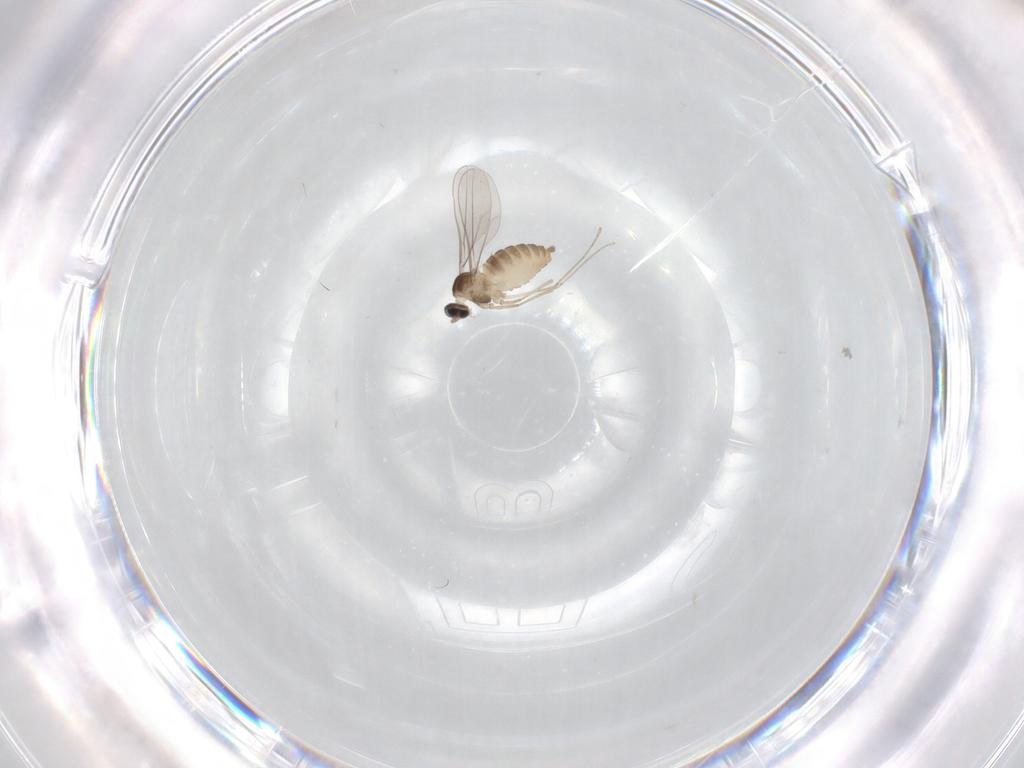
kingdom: Animalia
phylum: Arthropoda
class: Insecta
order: Diptera
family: Cecidomyiidae
